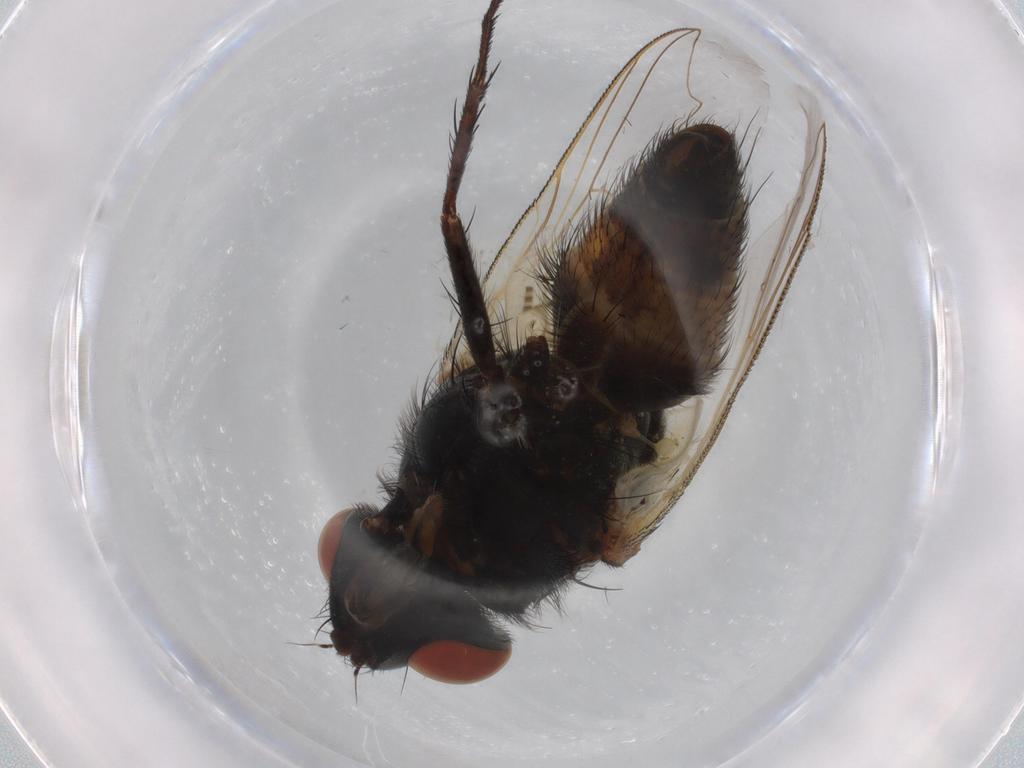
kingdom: Animalia
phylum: Arthropoda
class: Insecta
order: Diptera
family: Sarcophagidae
